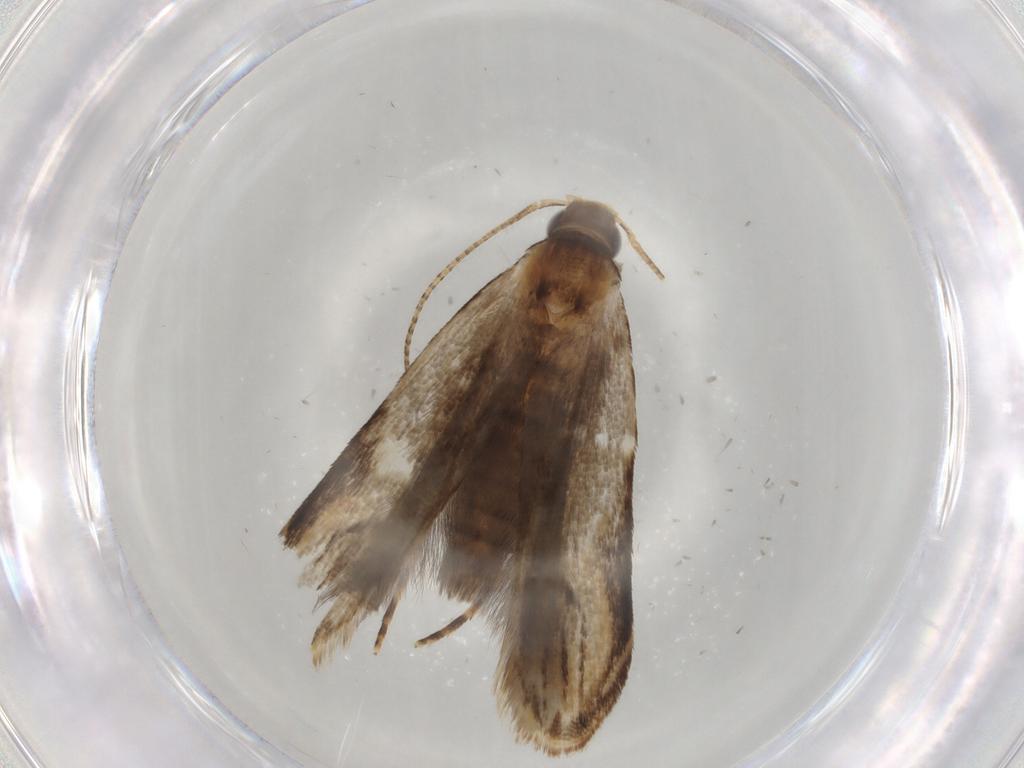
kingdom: Animalia
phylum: Arthropoda
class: Insecta
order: Lepidoptera
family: Gelechiidae
